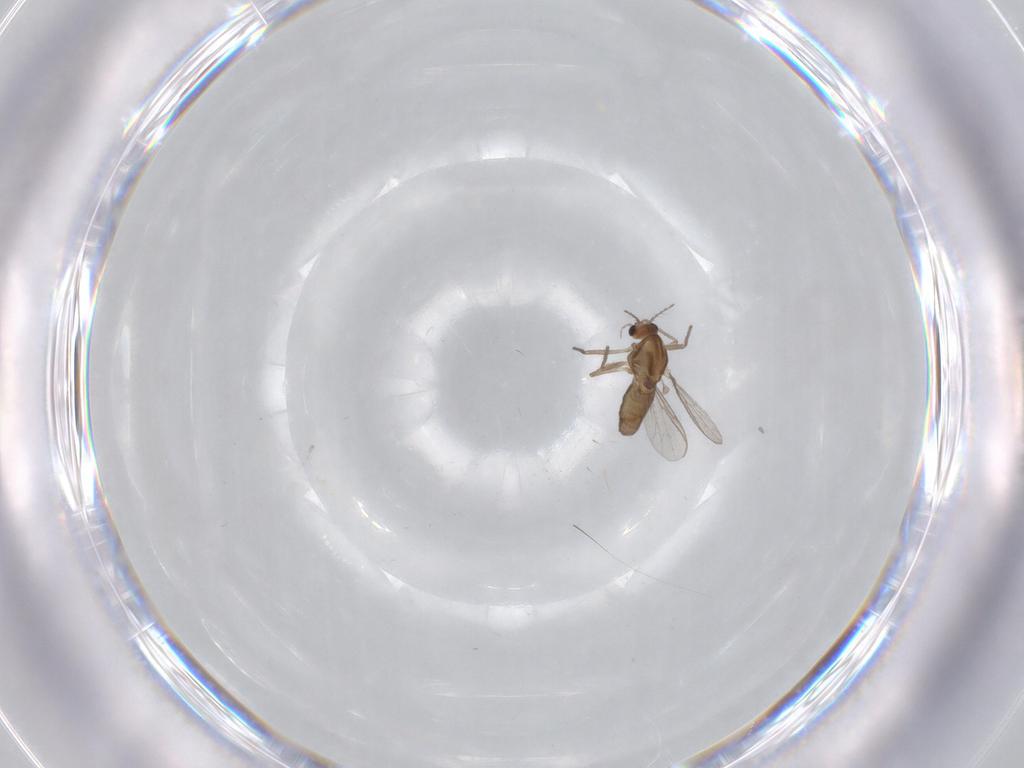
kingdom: Animalia
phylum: Arthropoda
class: Insecta
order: Diptera
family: Chironomidae
